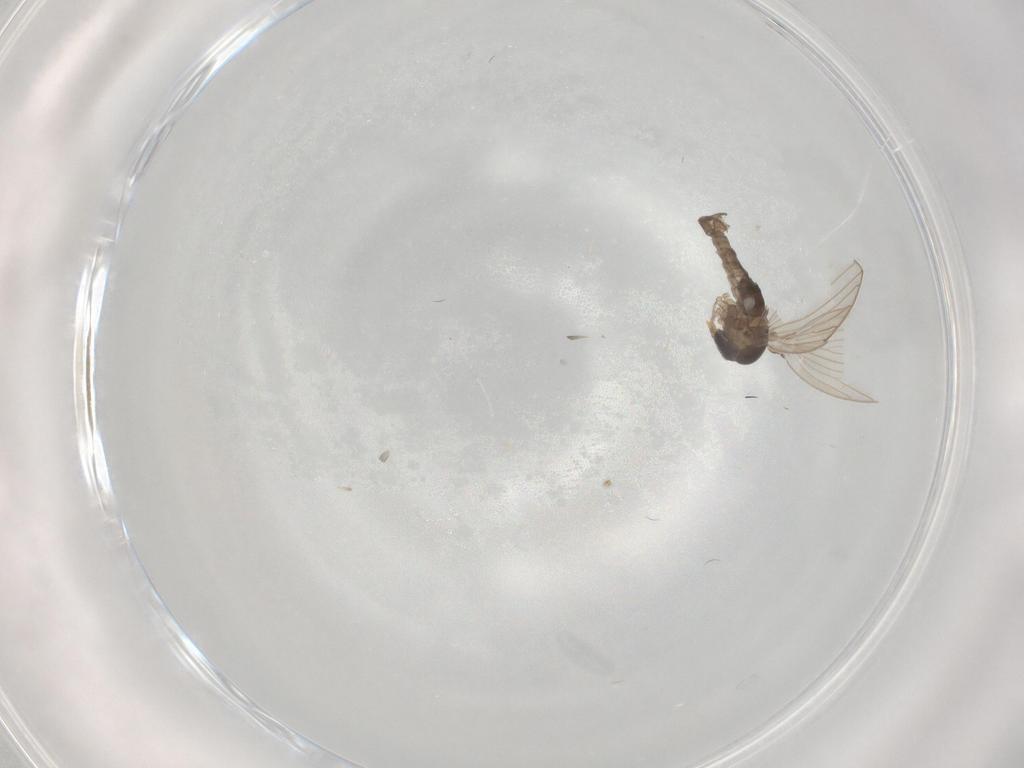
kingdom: Animalia
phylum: Arthropoda
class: Insecta
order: Diptera
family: Psychodidae
